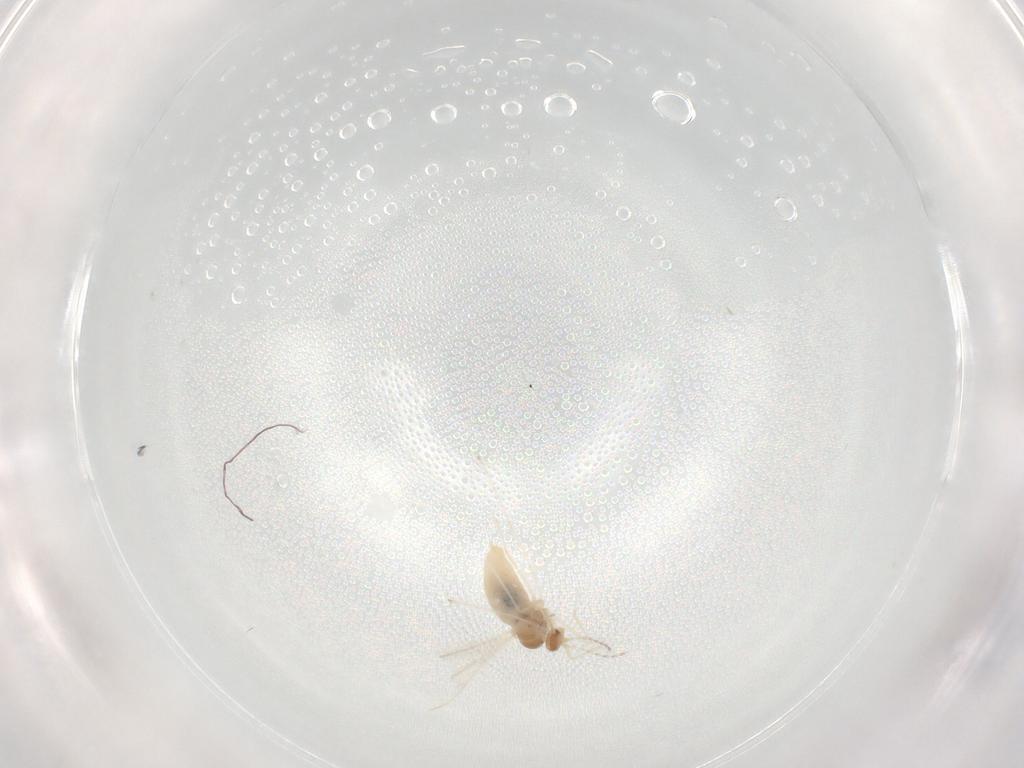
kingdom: Animalia
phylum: Arthropoda
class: Insecta
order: Diptera
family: Cecidomyiidae
